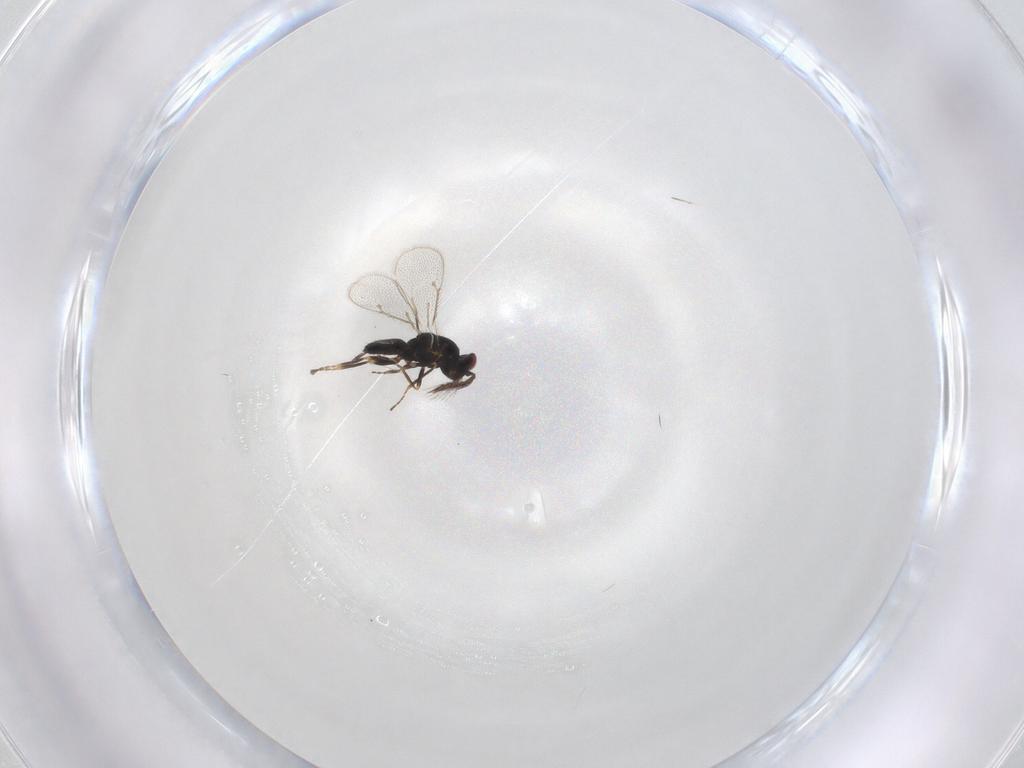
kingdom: Animalia
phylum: Arthropoda
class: Insecta
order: Hymenoptera
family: Eulophidae
